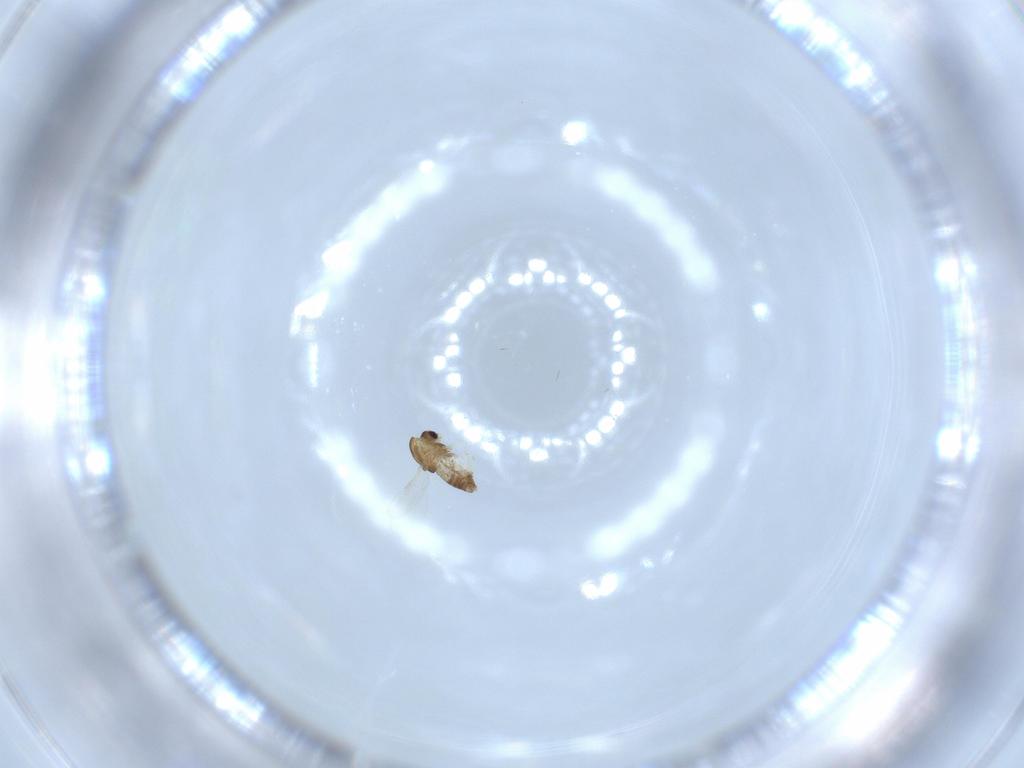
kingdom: Animalia
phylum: Arthropoda
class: Insecta
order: Diptera
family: Chironomidae
